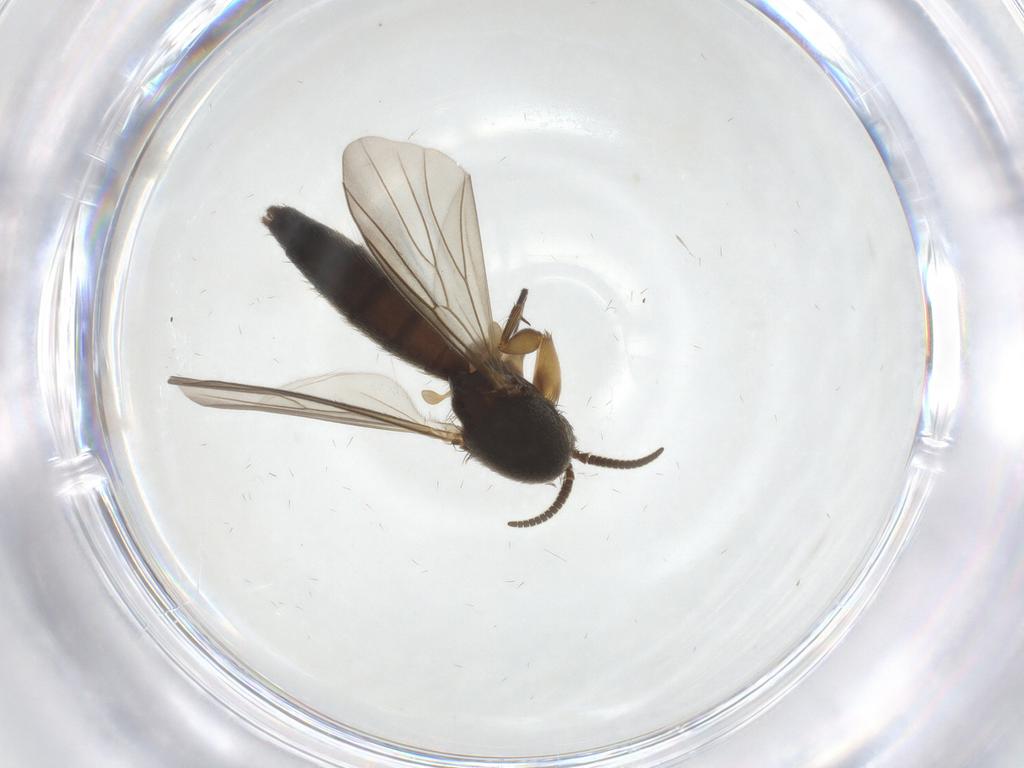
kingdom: Animalia
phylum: Arthropoda
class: Insecta
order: Diptera
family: Mycetophilidae
